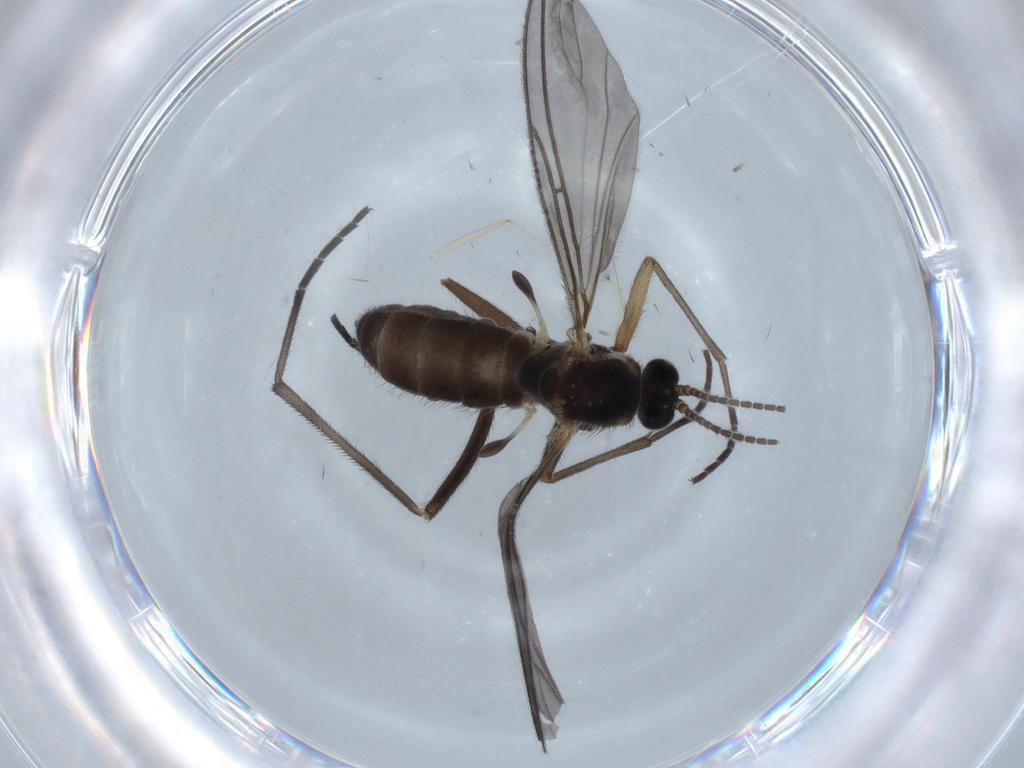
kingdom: Animalia
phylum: Arthropoda
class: Insecta
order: Diptera
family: Sciaridae
